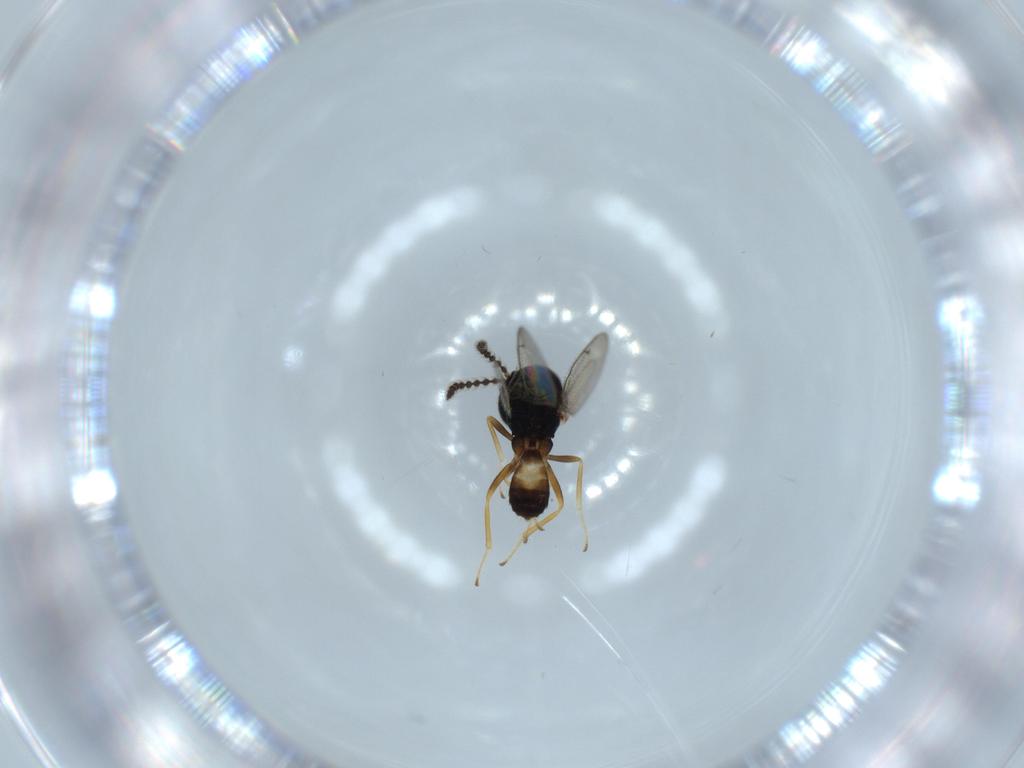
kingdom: Animalia
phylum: Arthropoda
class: Insecta
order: Hymenoptera
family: Pteromalidae
